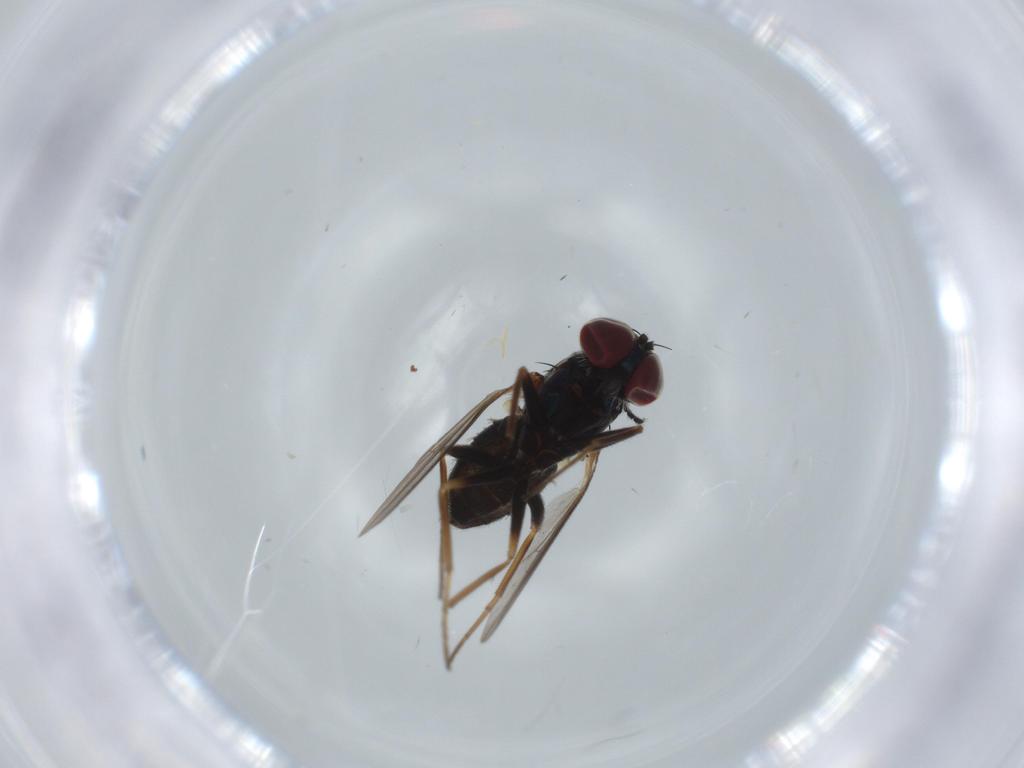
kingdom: Animalia
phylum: Arthropoda
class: Insecta
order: Diptera
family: Dolichopodidae
